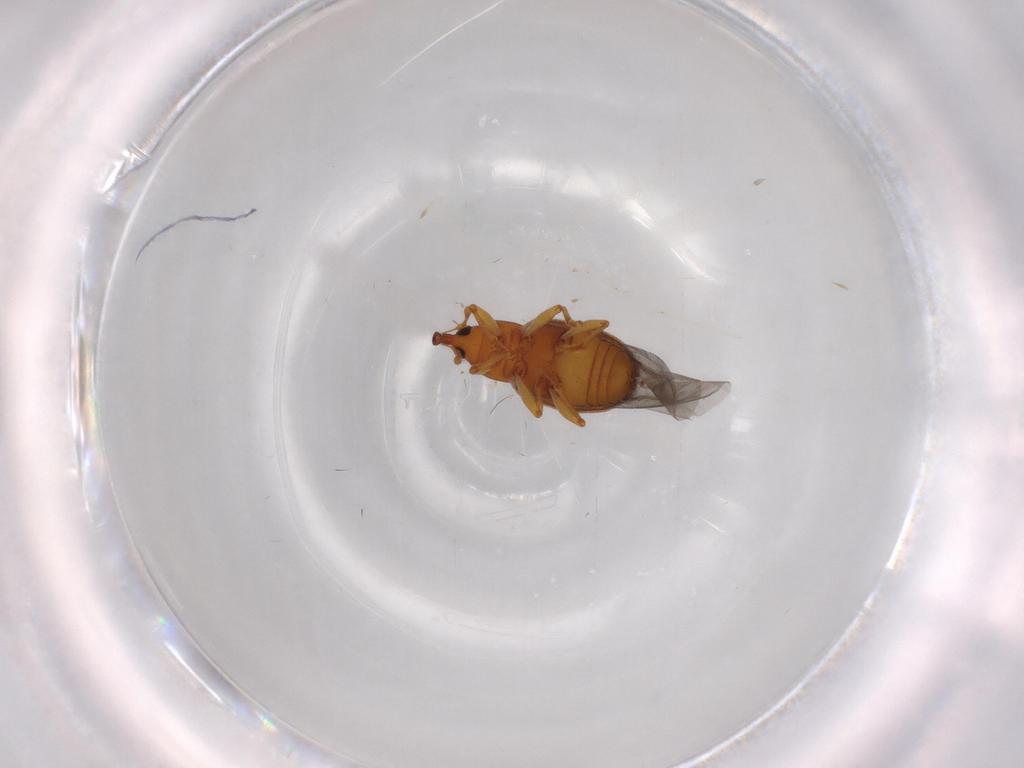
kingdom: Animalia
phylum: Arthropoda
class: Insecta
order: Coleoptera
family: Curculionidae
